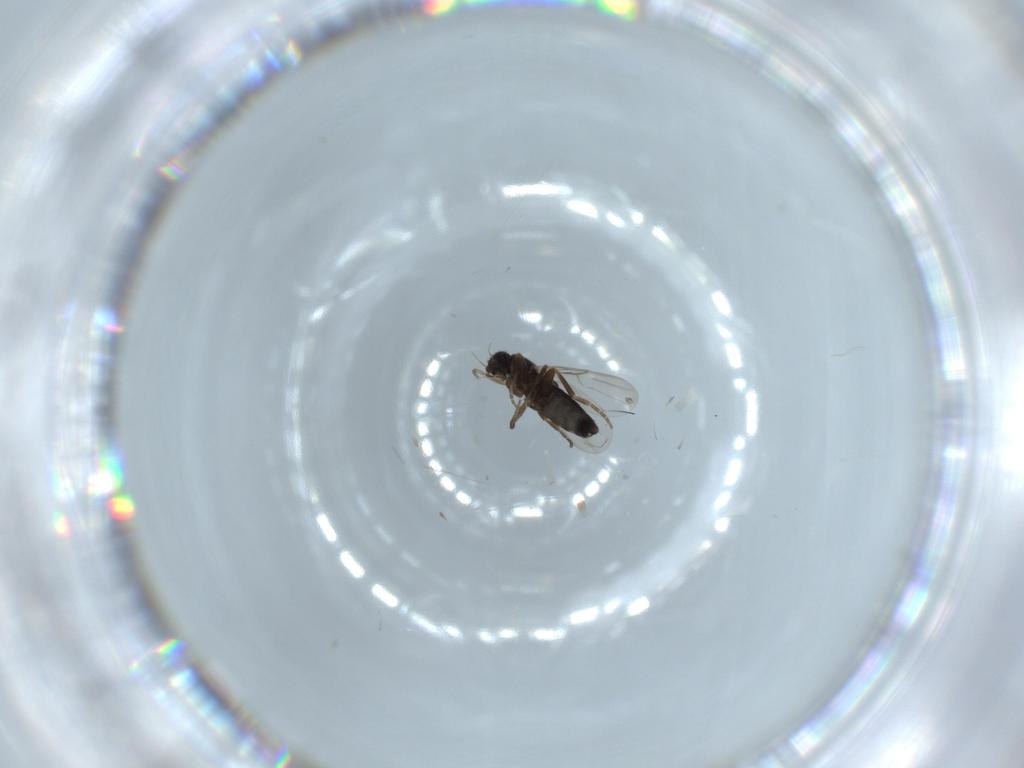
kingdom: Animalia
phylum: Arthropoda
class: Insecta
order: Diptera
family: Phoridae
